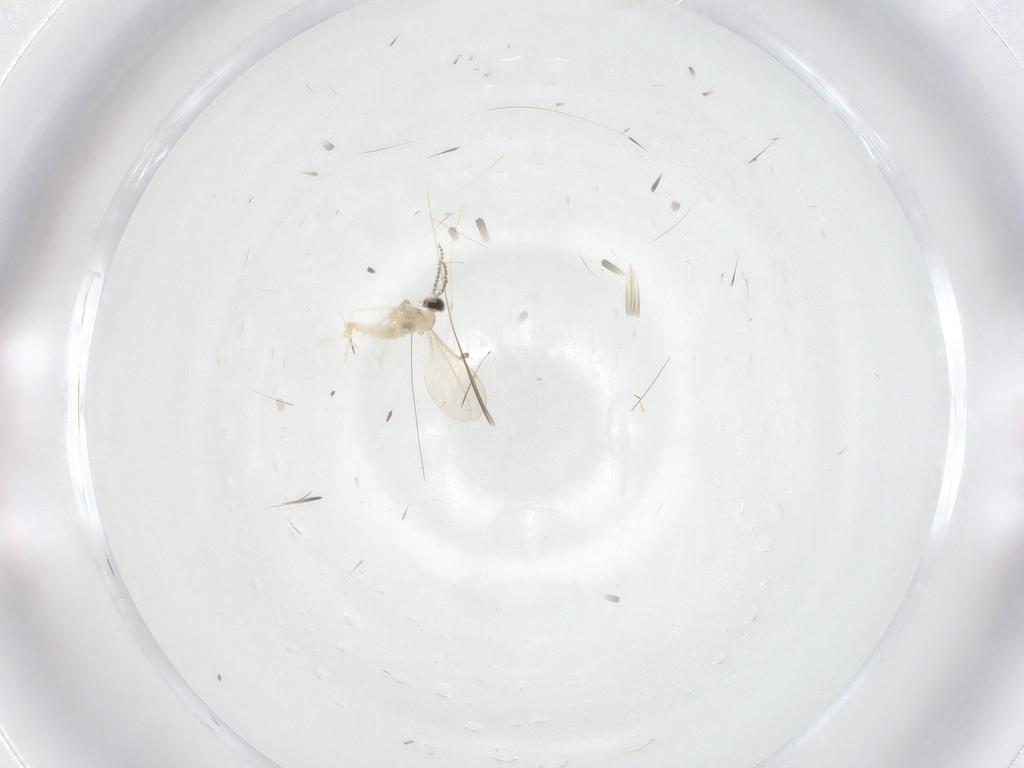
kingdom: Animalia
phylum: Arthropoda
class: Insecta
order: Diptera
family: Cecidomyiidae
